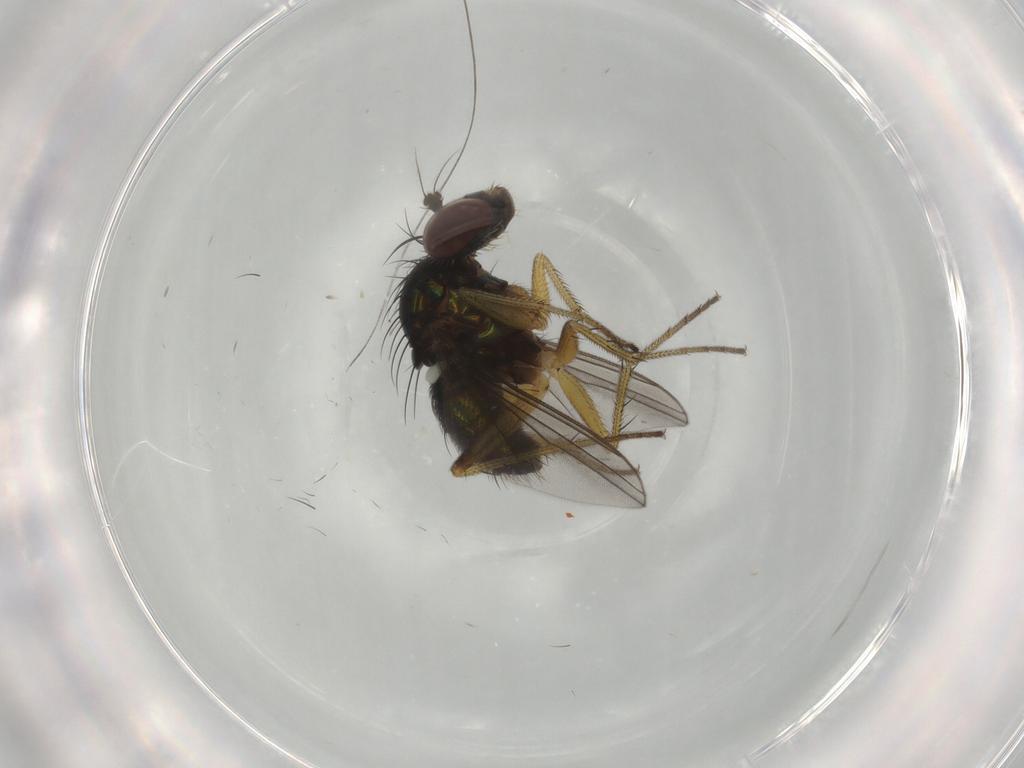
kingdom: Animalia
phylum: Arthropoda
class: Insecta
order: Diptera
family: Dolichopodidae
